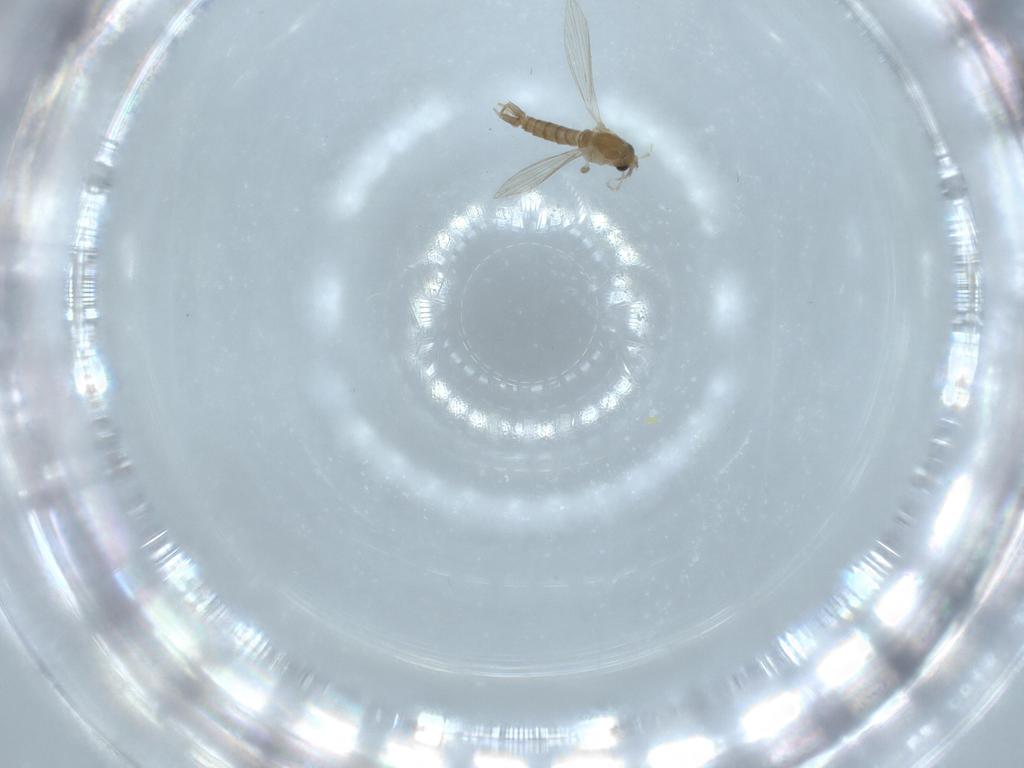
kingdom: Animalia
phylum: Arthropoda
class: Insecta
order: Diptera
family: Psychodidae
